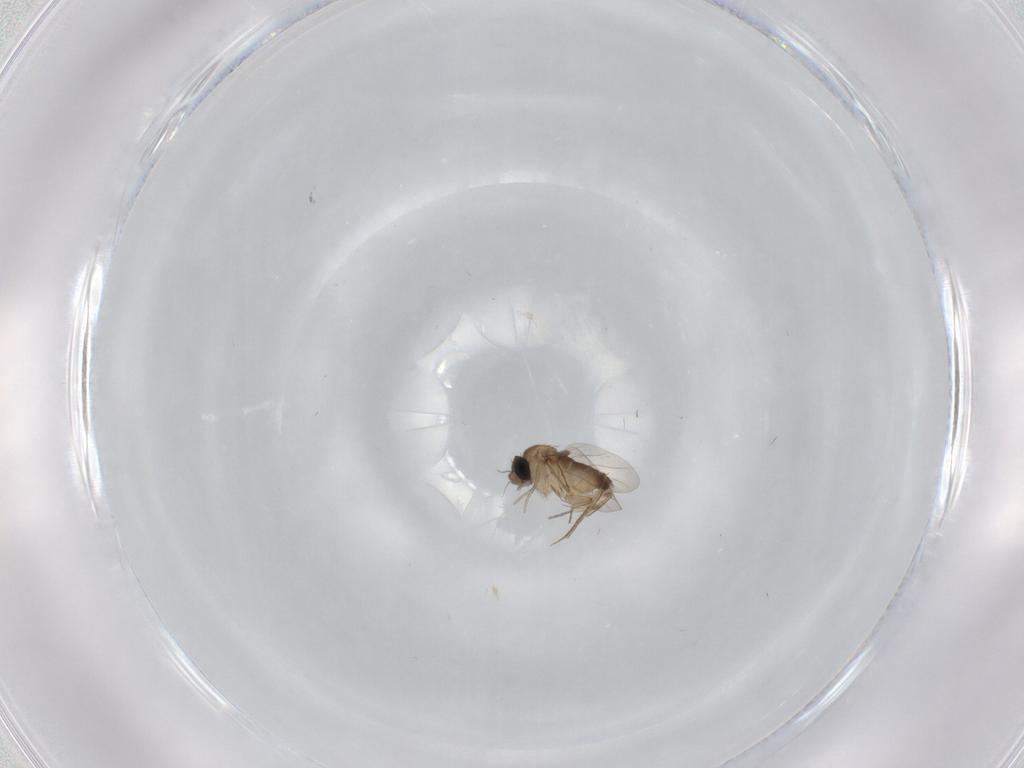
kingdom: Animalia
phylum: Arthropoda
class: Insecta
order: Diptera
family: Phoridae
